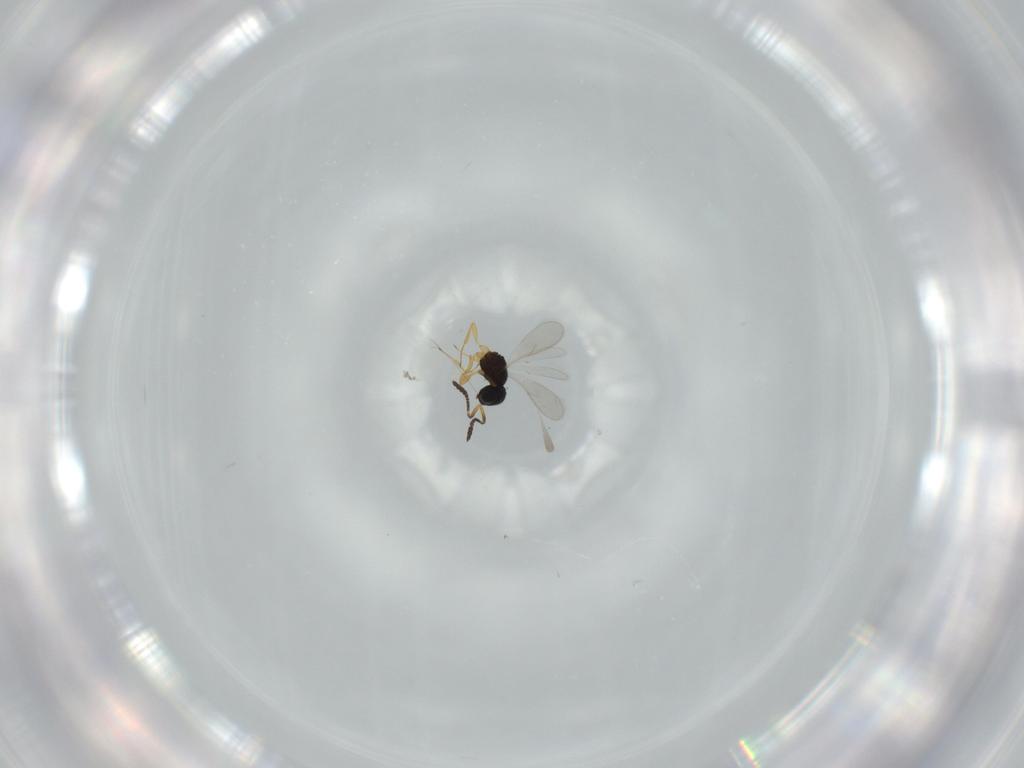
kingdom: Animalia
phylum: Arthropoda
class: Insecta
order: Hymenoptera
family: Scelionidae
